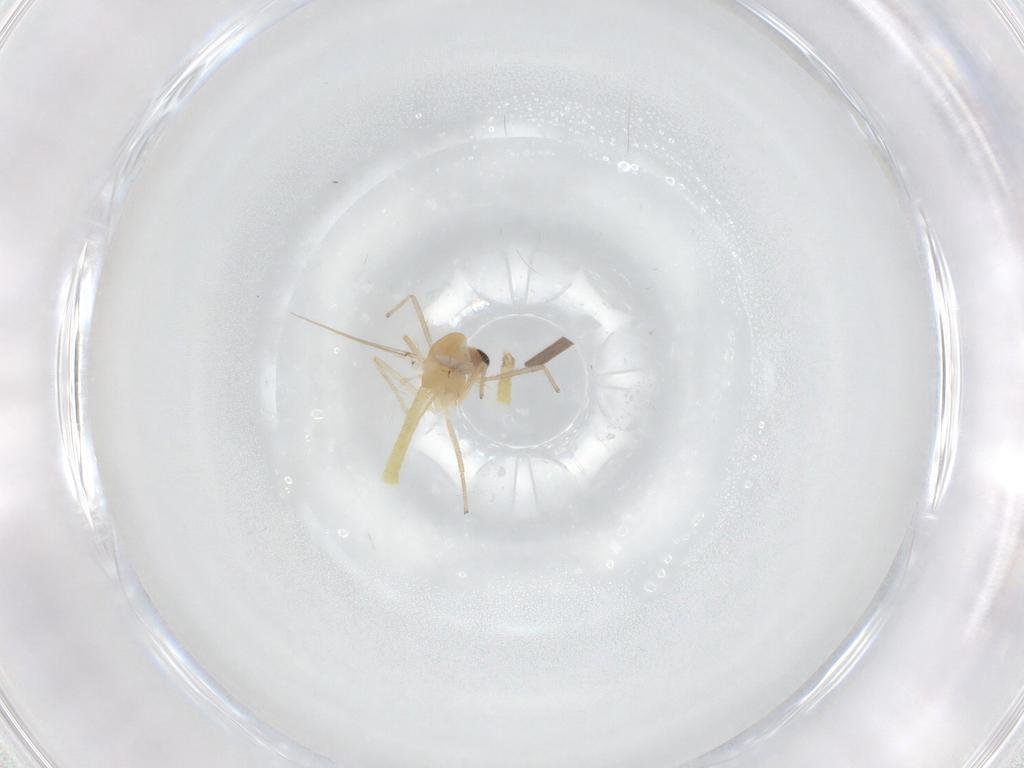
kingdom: Animalia
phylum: Arthropoda
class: Insecta
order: Diptera
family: Chironomidae
